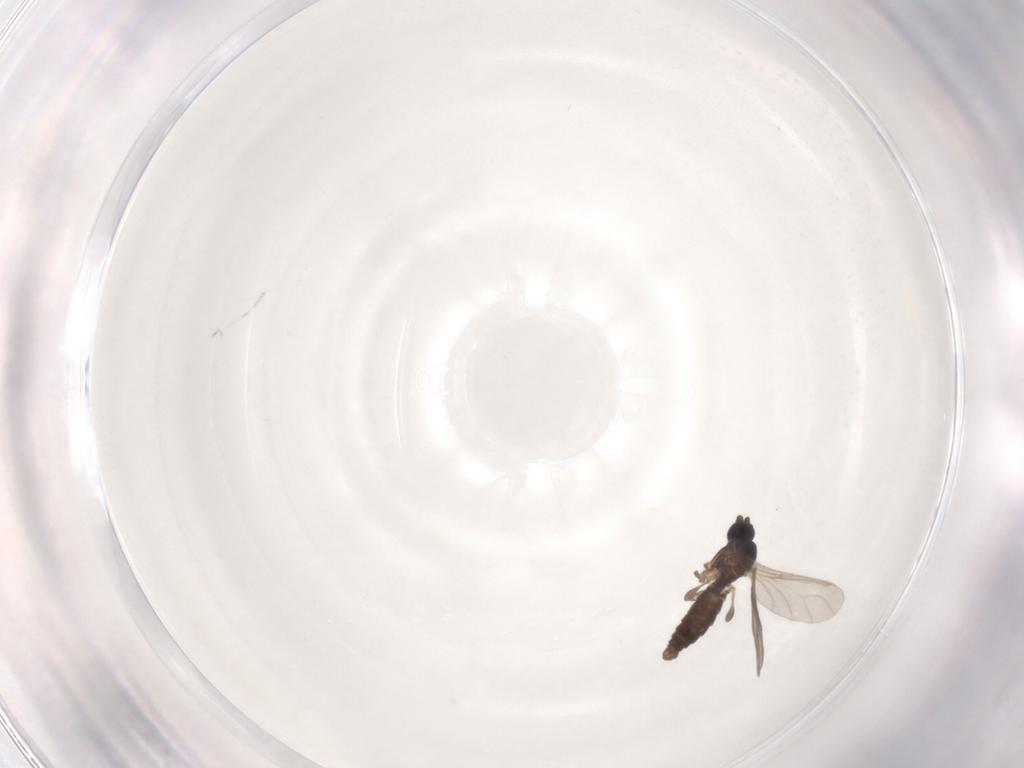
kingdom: Animalia
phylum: Arthropoda
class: Insecta
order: Diptera
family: Sciaridae
